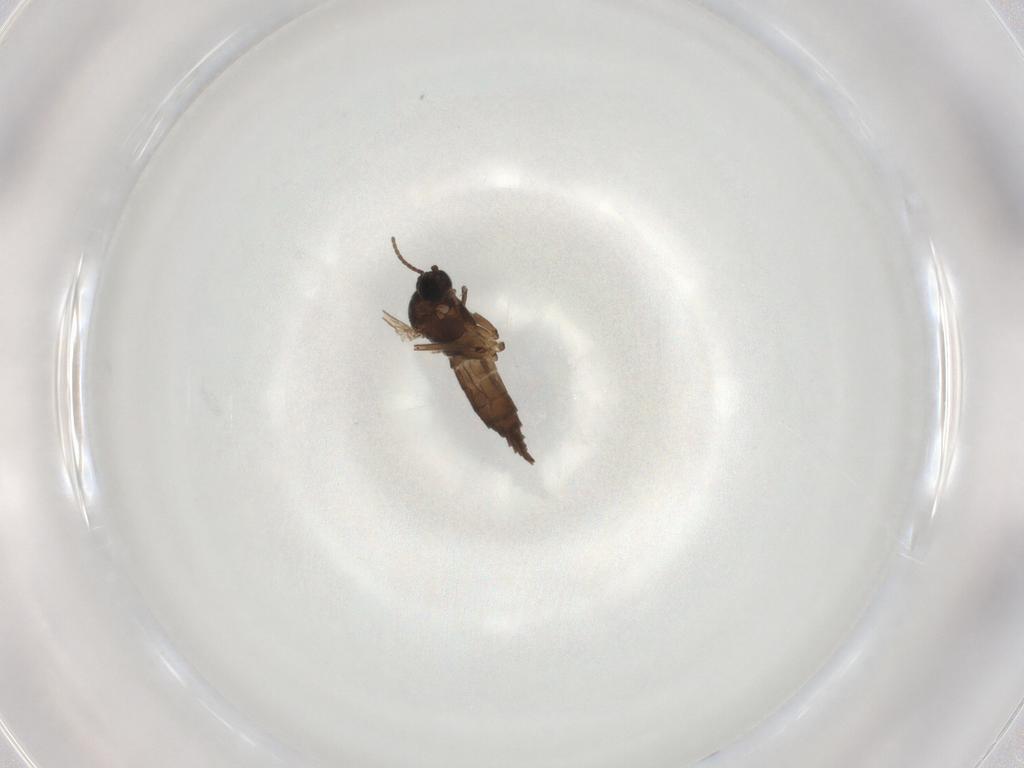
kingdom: Animalia
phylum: Arthropoda
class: Insecta
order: Diptera
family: Sciaridae
